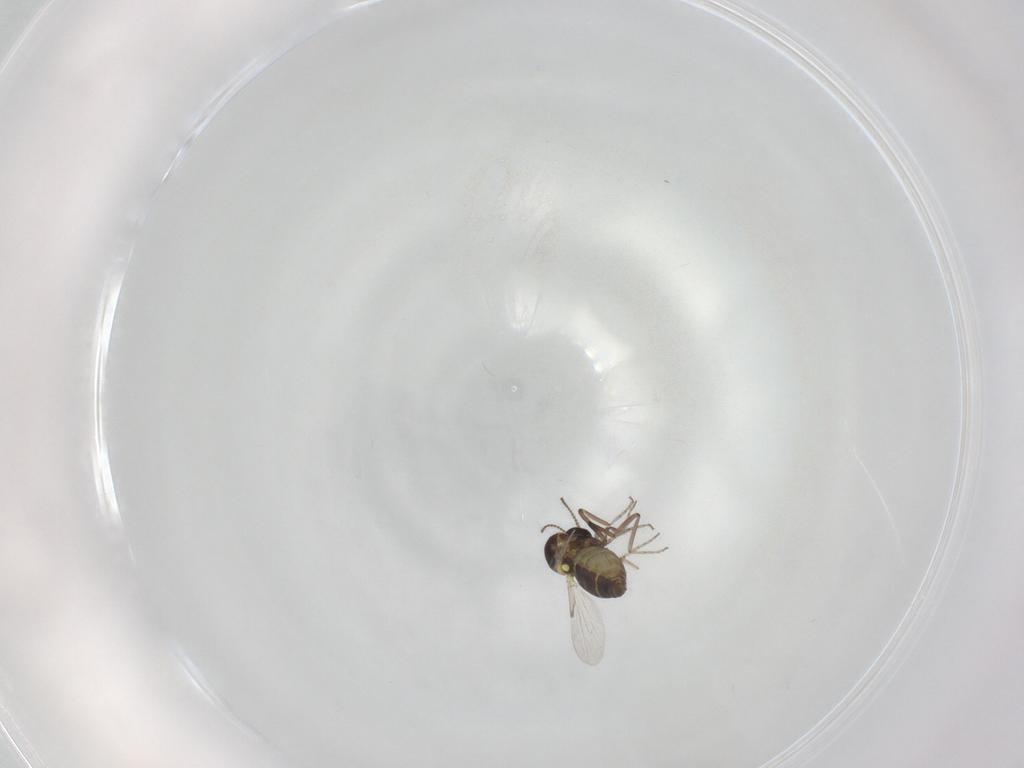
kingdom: Animalia
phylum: Arthropoda
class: Insecta
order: Diptera
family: Ceratopogonidae
